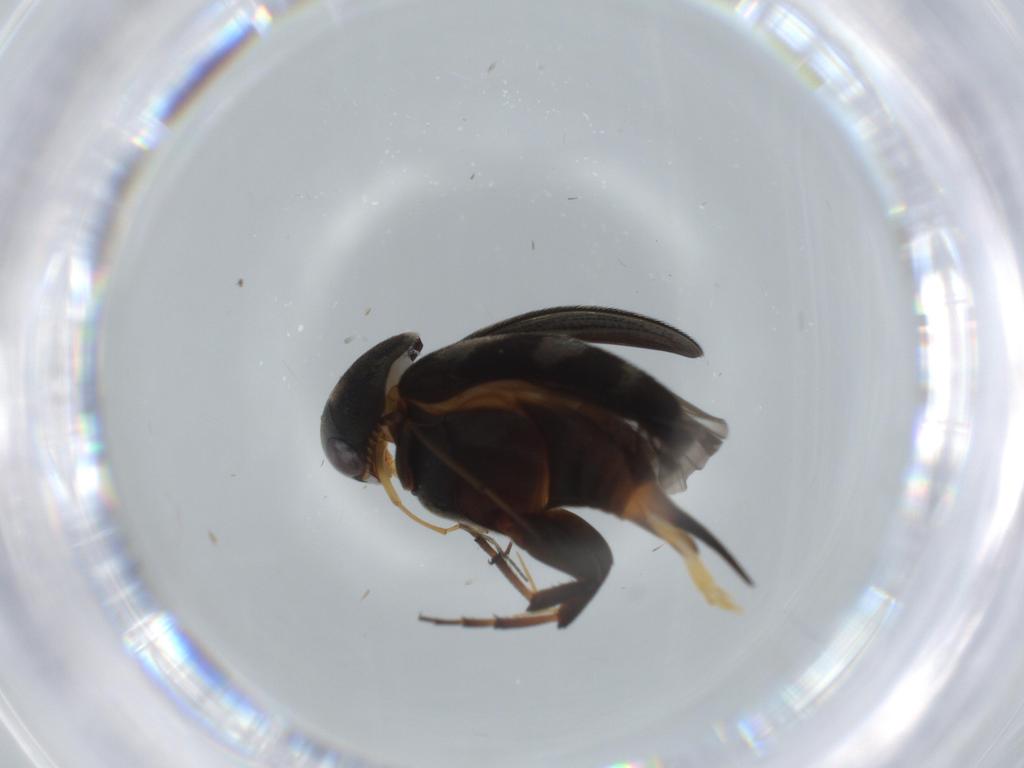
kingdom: Animalia
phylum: Arthropoda
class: Insecta
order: Coleoptera
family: Mordellidae
